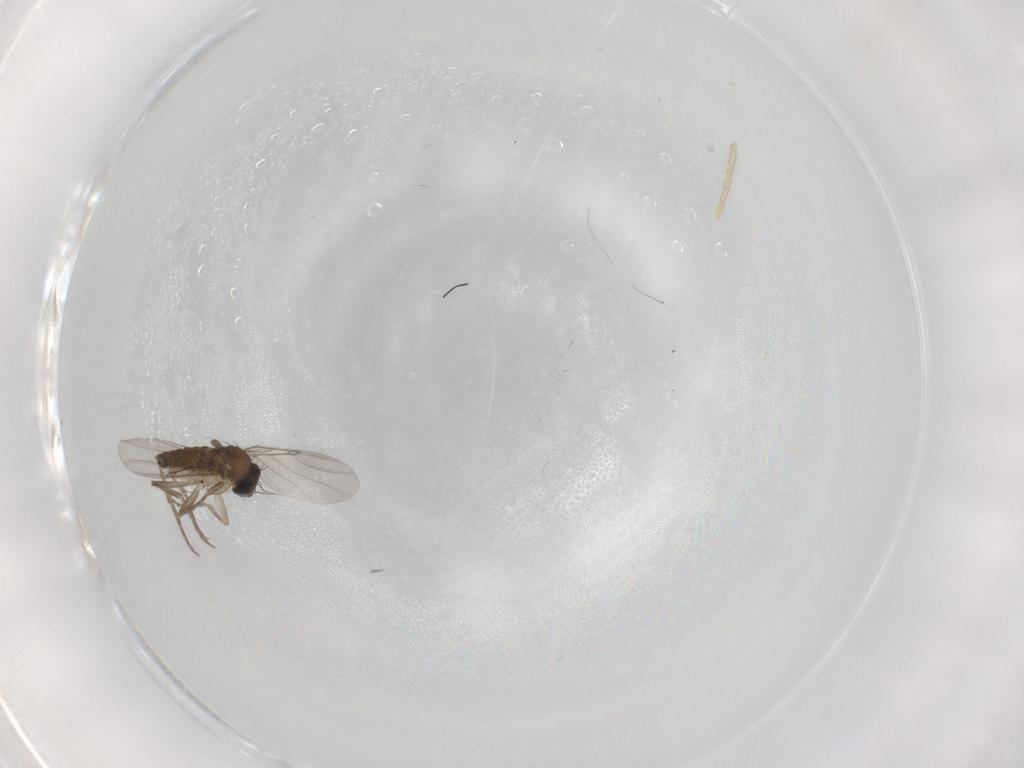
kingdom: Animalia
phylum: Arthropoda
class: Insecta
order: Diptera
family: Phoridae
